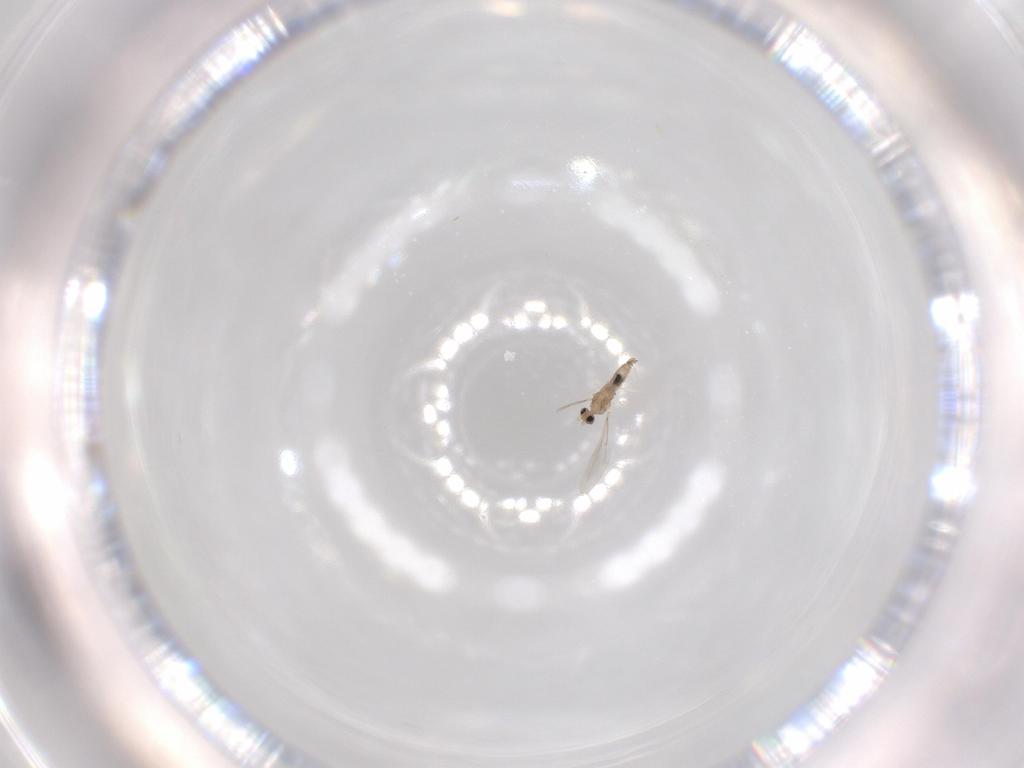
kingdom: Animalia
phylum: Arthropoda
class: Insecta
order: Diptera
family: Cecidomyiidae
